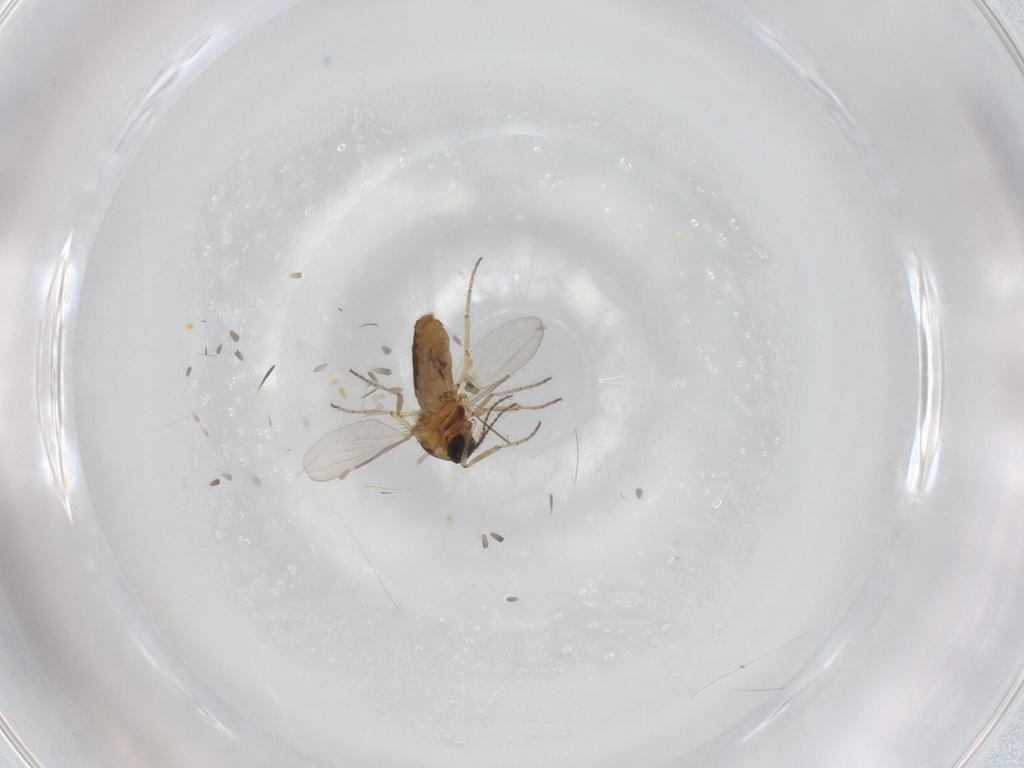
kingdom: Animalia
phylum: Arthropoda
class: Insecta
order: Diptera
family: Ceratopogonidae
